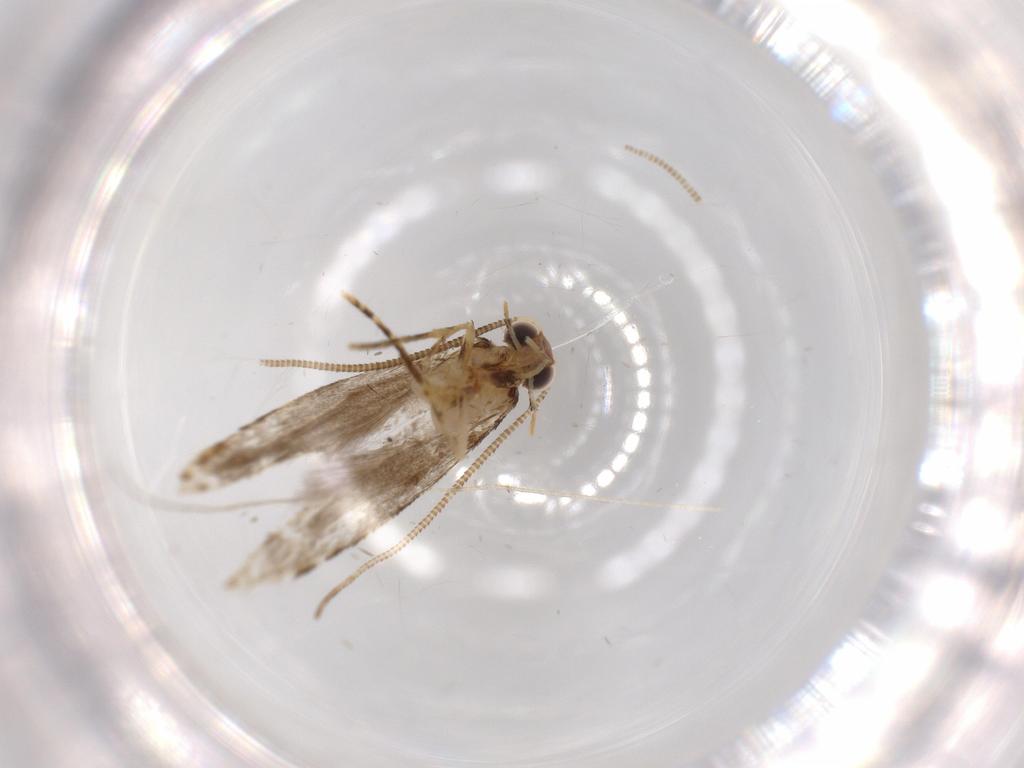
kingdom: Animalia
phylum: Arthropoda
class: Insecta
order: Lepidoptera
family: Tineidae
